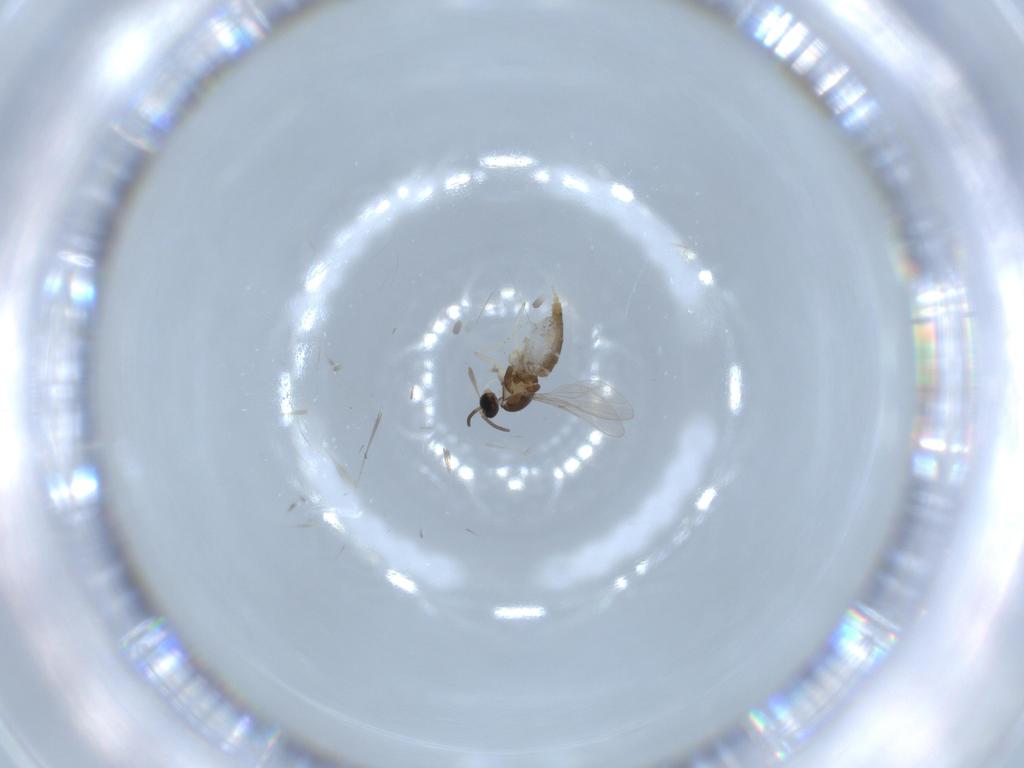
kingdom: Animalia
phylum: Arthropoda
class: Insecta
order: Diptera
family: Cecidomyiidae
